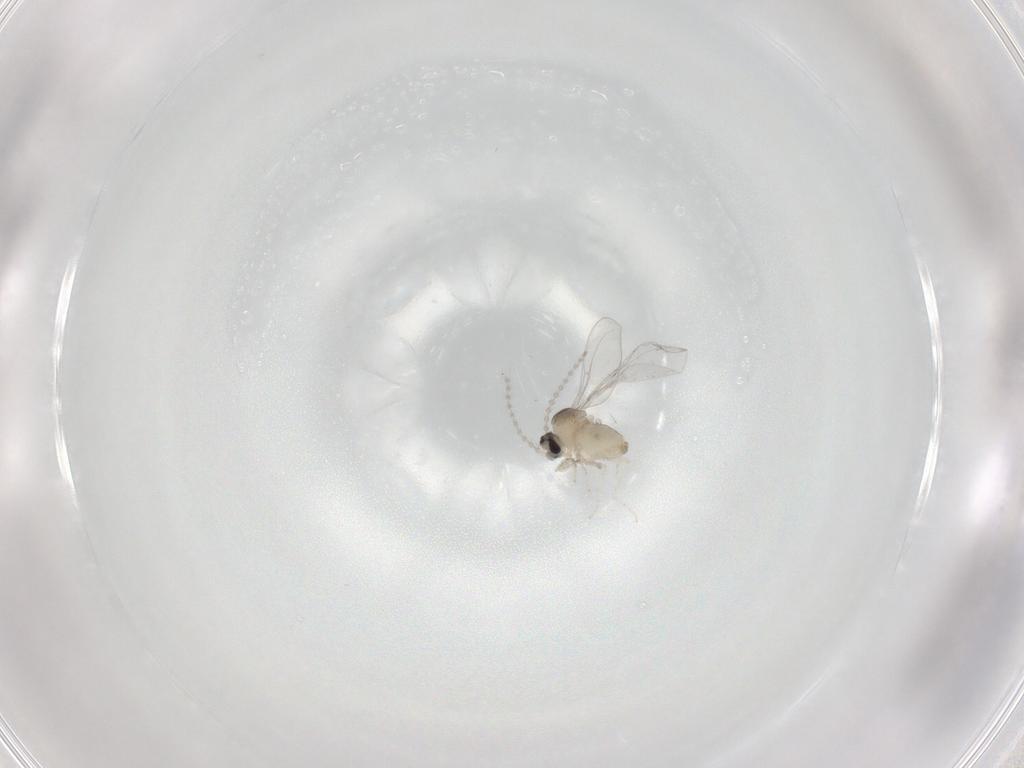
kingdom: Animalia
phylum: Arthropoda
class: Insecta
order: Diptera
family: Cecidomyiidae
